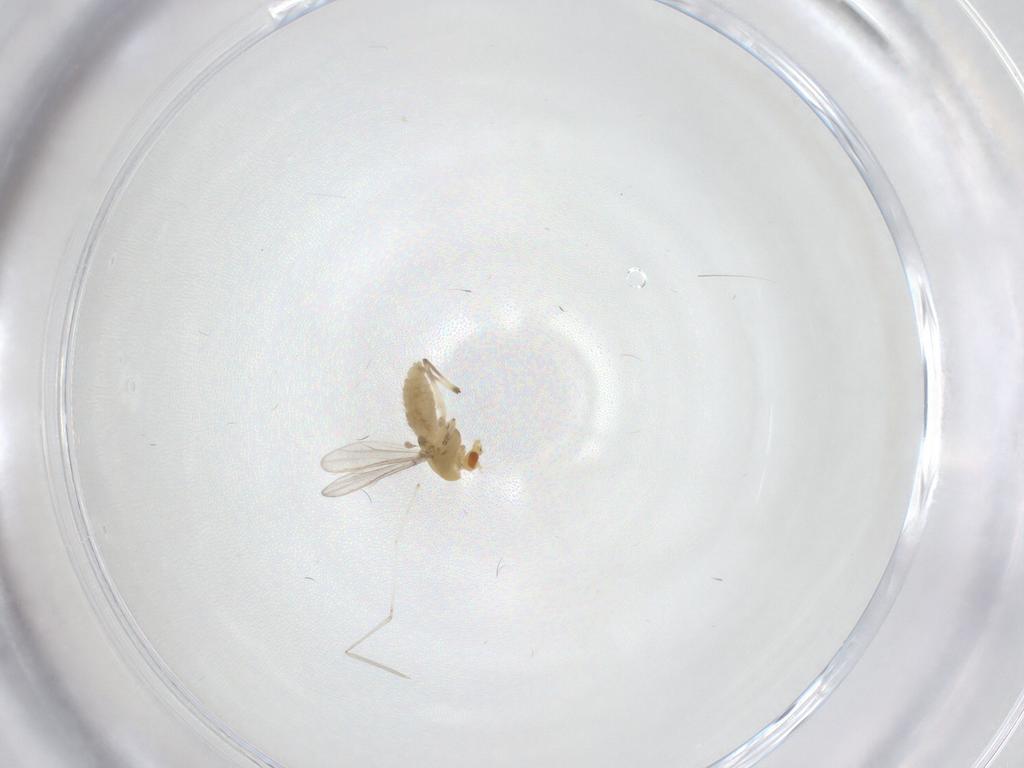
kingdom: Animalia
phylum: Arthropoda
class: Insecta
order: Diptera
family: Chironomidae
